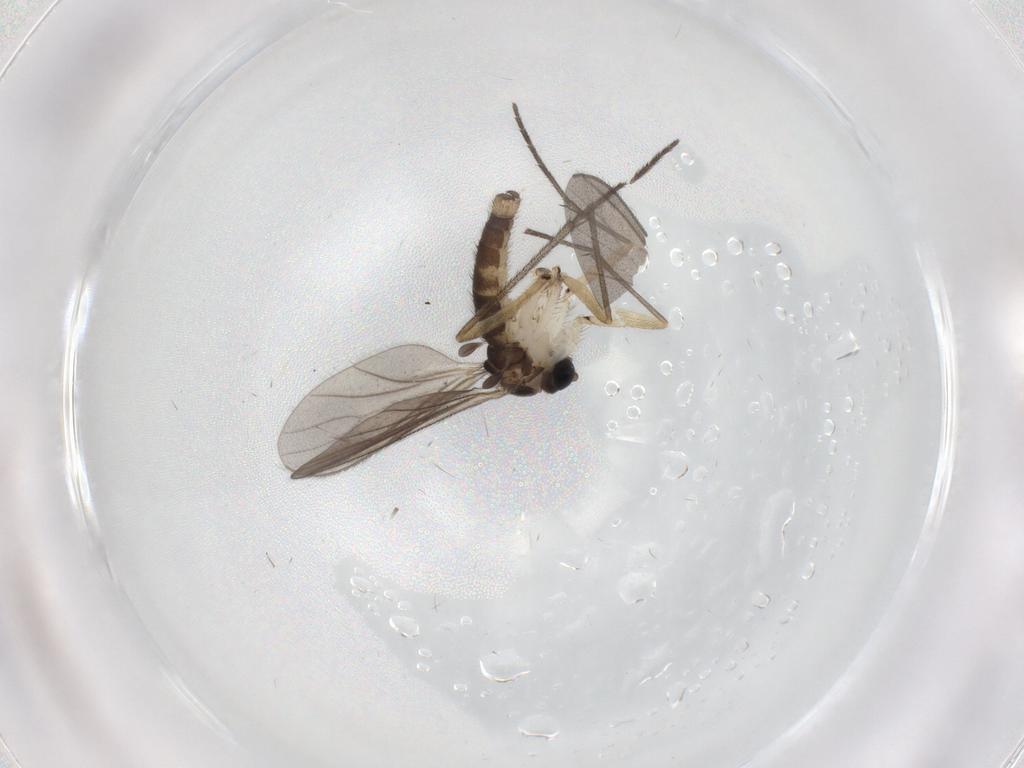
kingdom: Animalia
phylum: Arthropoda
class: Insecta
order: Diptera
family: Sciaridae
